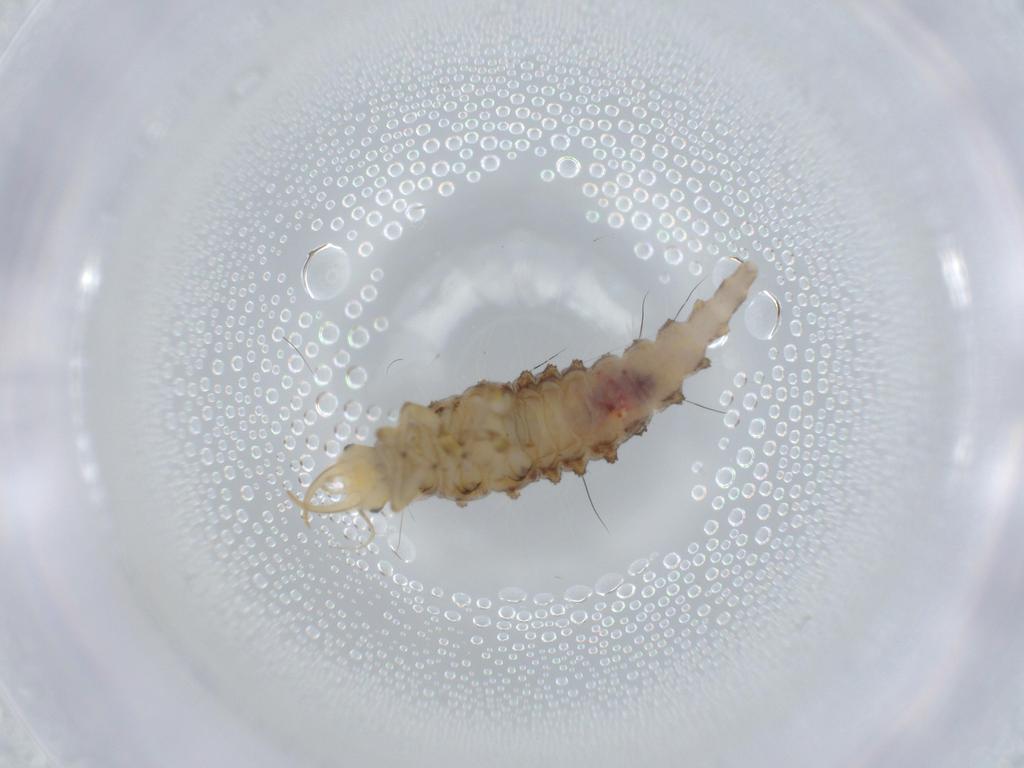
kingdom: Animalia
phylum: Arthropoda
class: Insecta
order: Neuroptera
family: Chrysopidae
